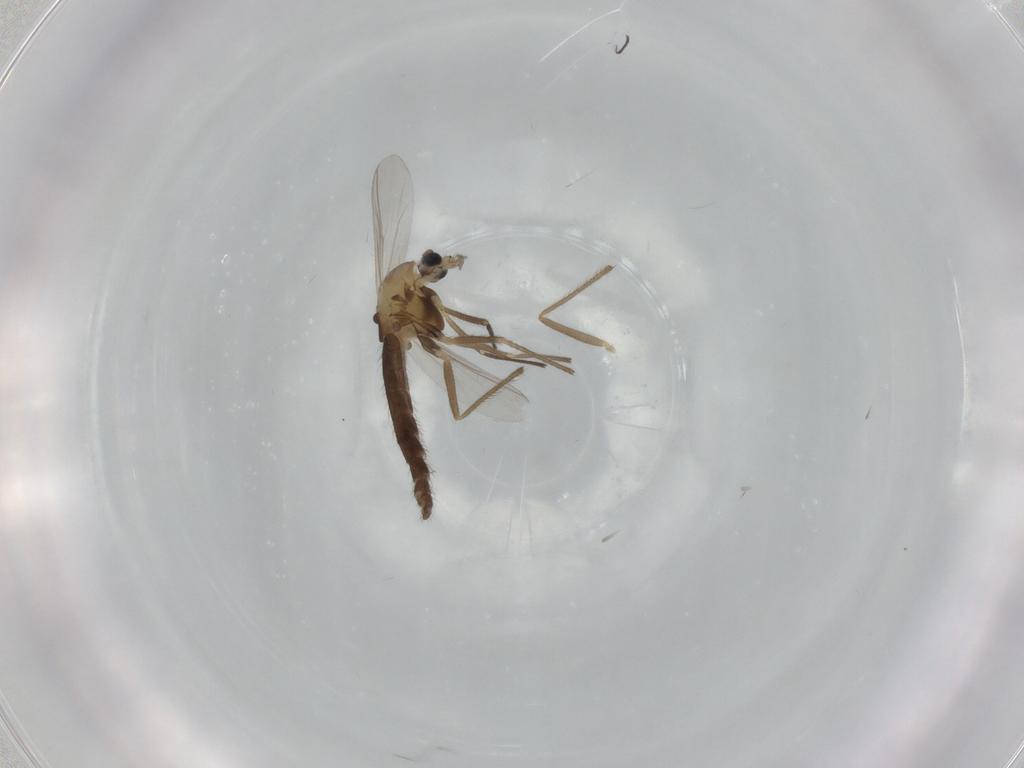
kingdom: Animalia
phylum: Arthropoda
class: Insecta
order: Diptera
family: Chironomidae
